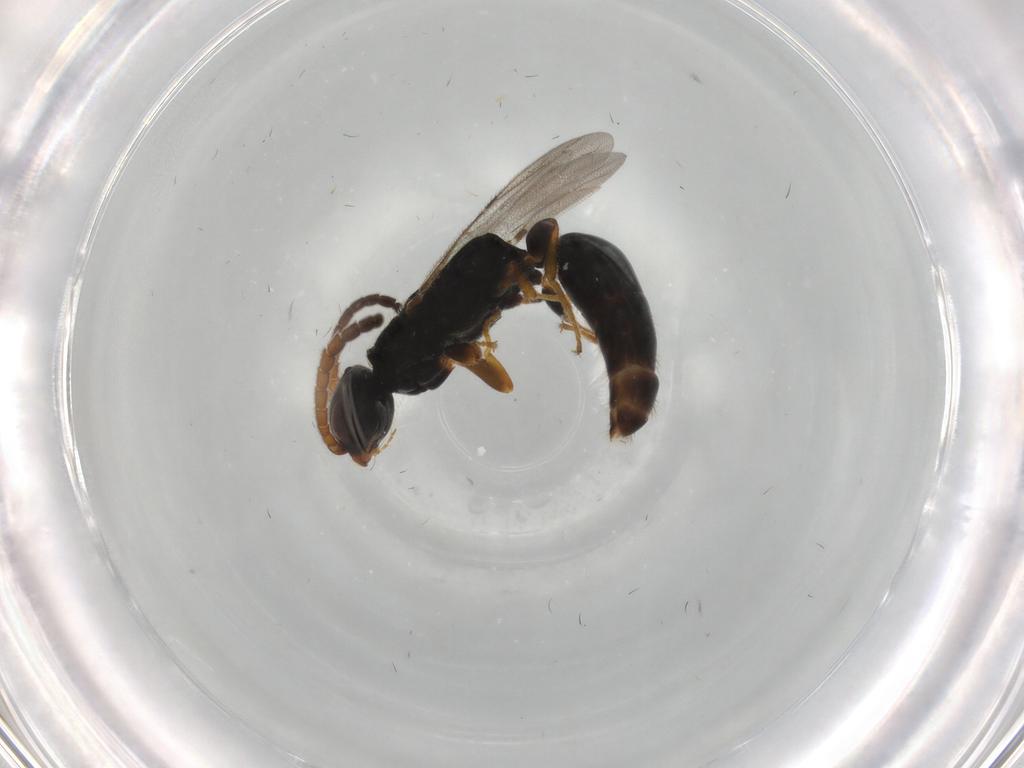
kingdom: Animalia
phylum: Arthropoda
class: Insecta
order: Hymenoptera
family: Bethylidae
